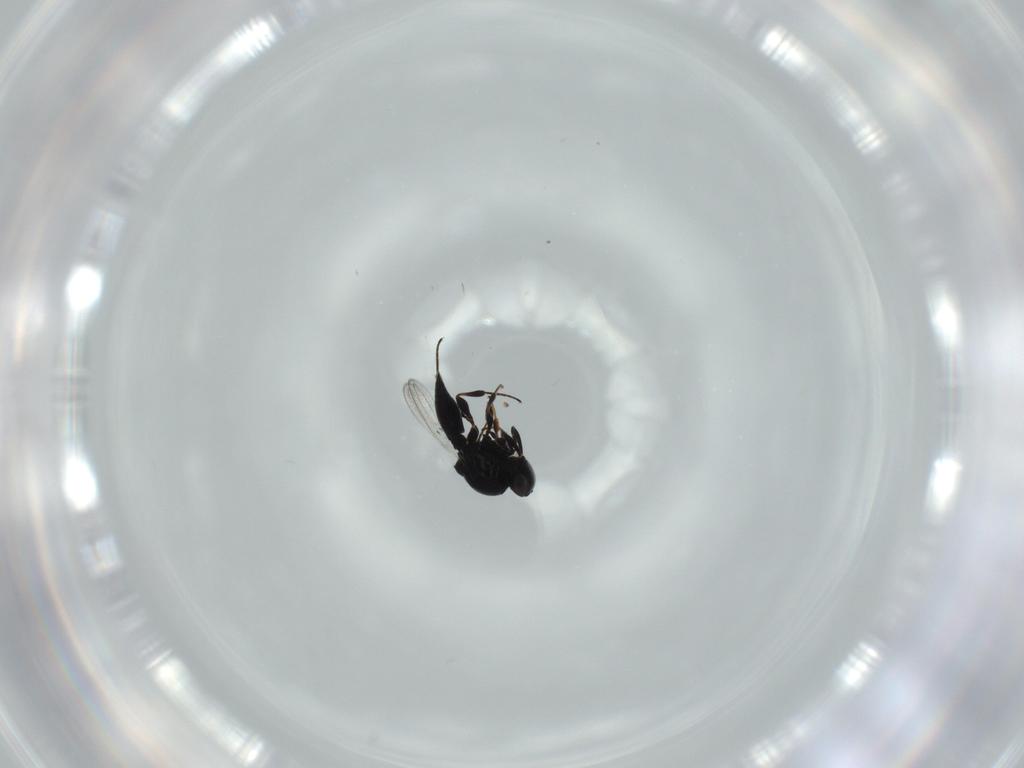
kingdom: Animalia
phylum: Arthropoda
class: Insecta
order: Hymenoptera
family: Platygastridae
